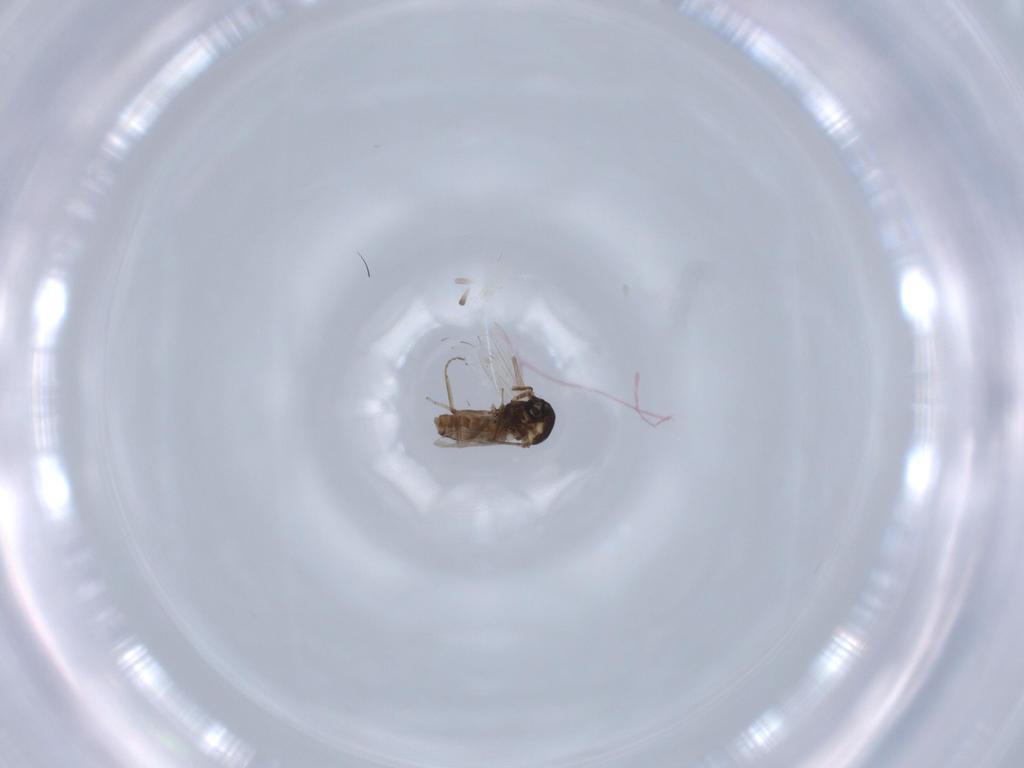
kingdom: Animalia
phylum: Arthropoda
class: Insecta
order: Diptera
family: Ceratopogonidae
